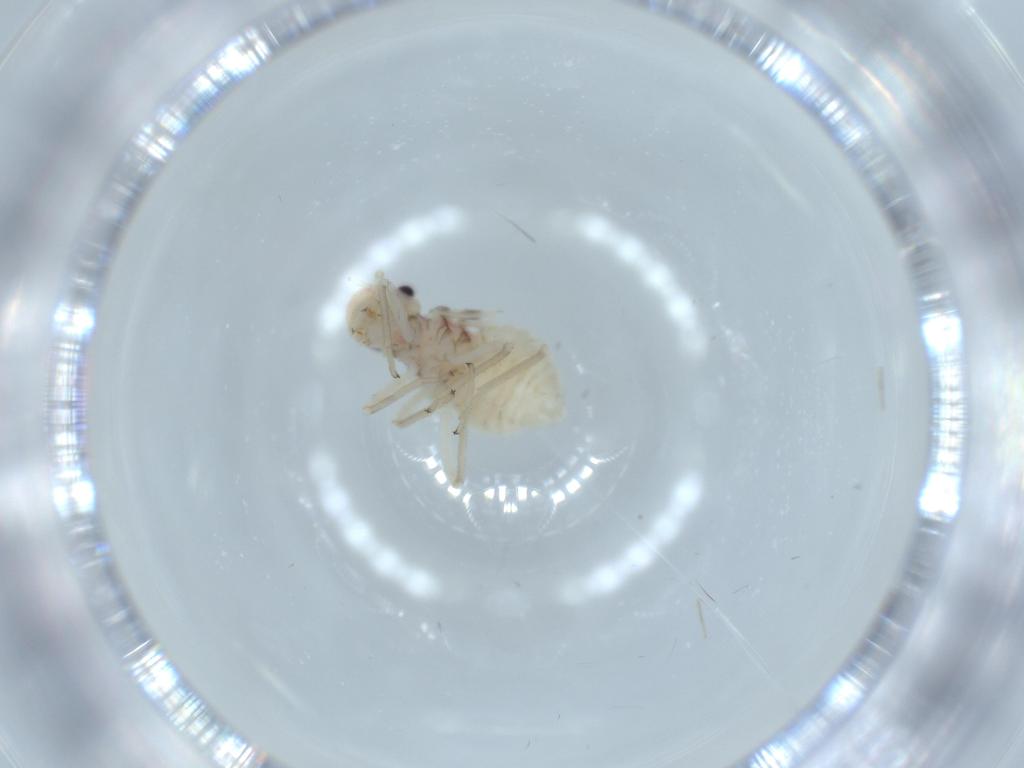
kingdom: Animalia
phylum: Arthropoda
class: Insecta
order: Psocodea
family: Amphipsocidae
